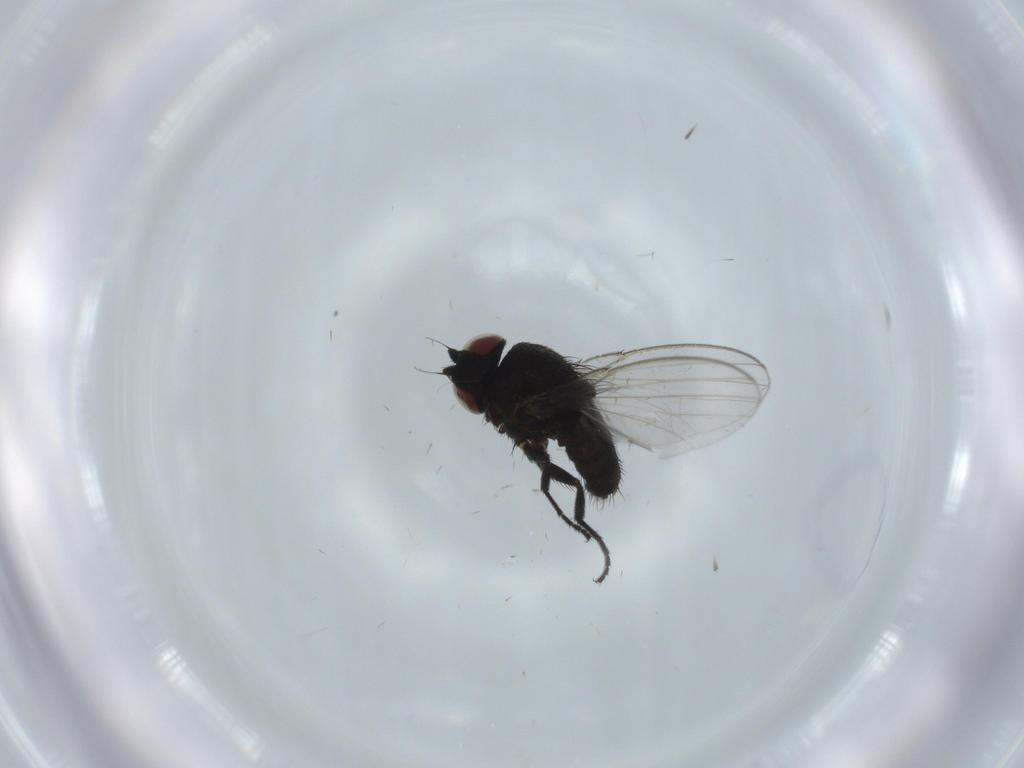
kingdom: Animalia
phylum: Arthropoda
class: Insecta
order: Diptera
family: Milichiidae
